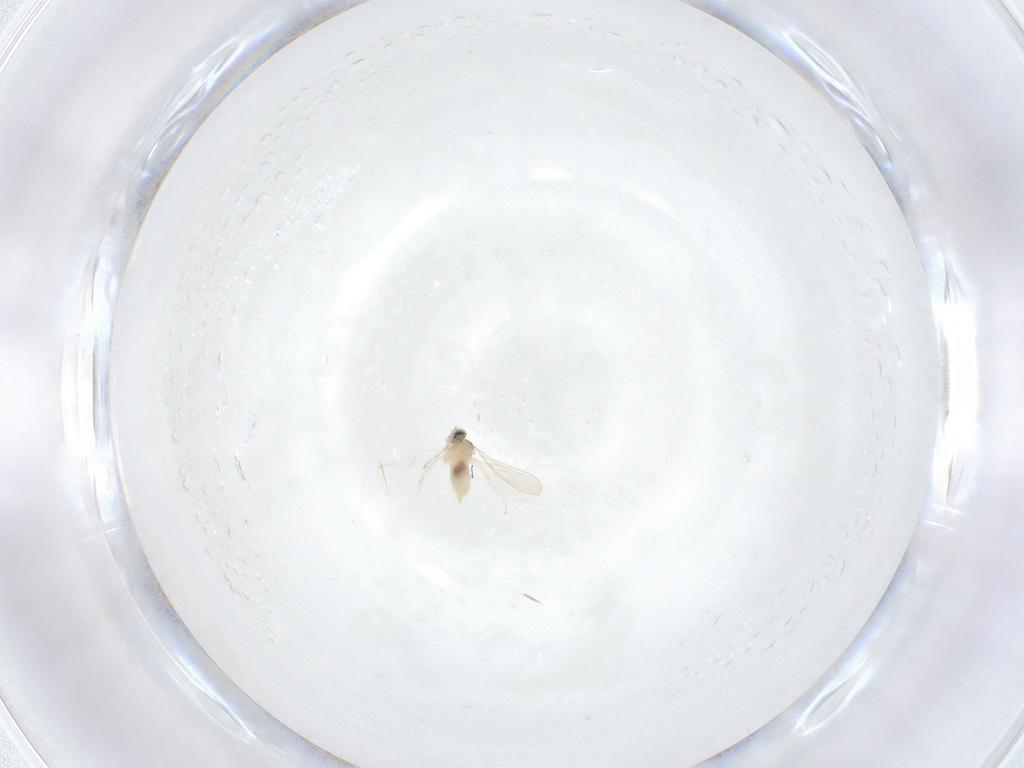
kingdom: Animalia
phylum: Arthropoda
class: Insecta
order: Diptera
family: Cecidomyiidae
